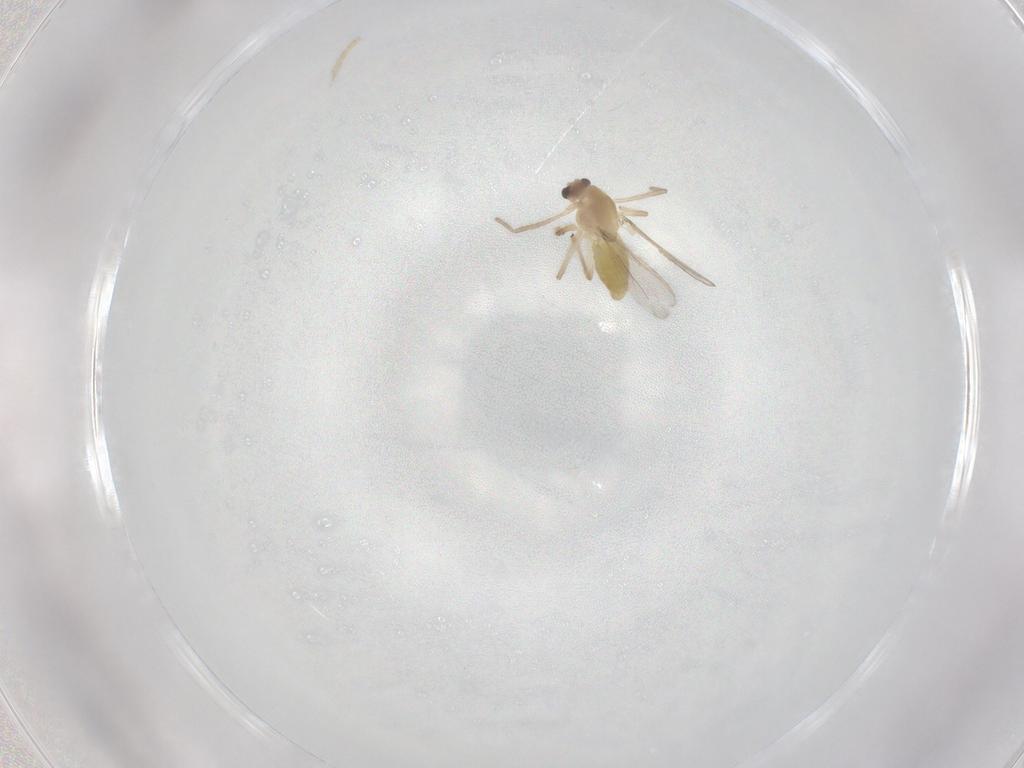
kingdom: Animalia
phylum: Arthropoda
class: Insecta
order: Diptera
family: Chironomidae
